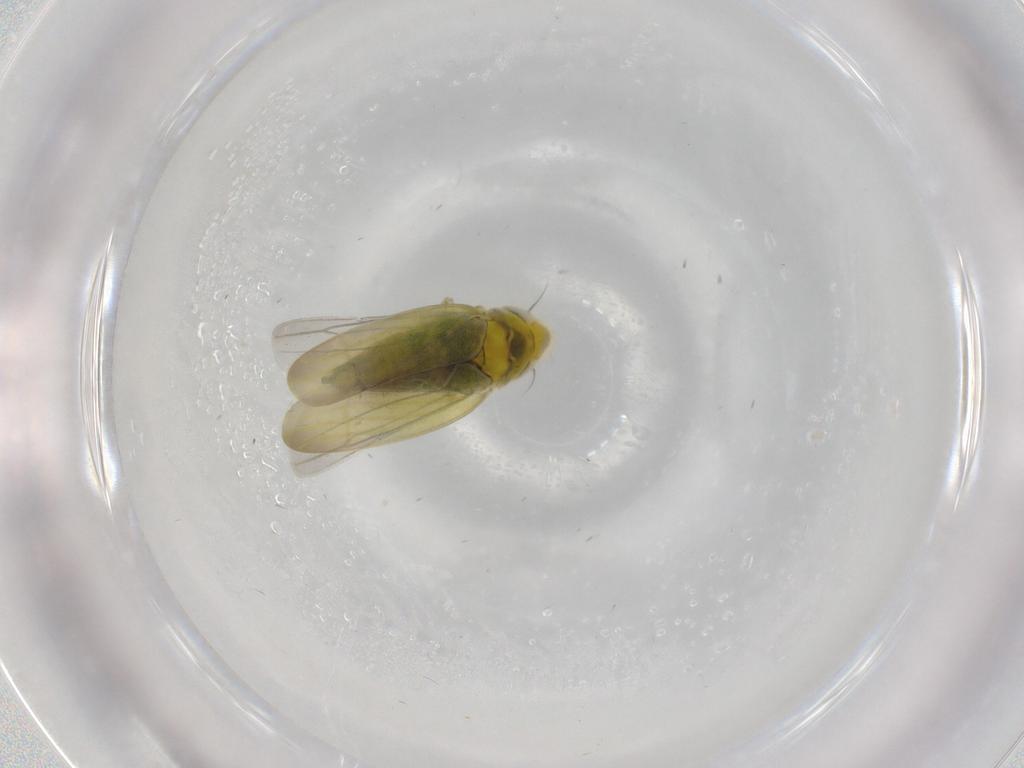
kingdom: Animalia
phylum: Arthropoda
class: Insecta
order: Hemiptera
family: Cicadellidae
